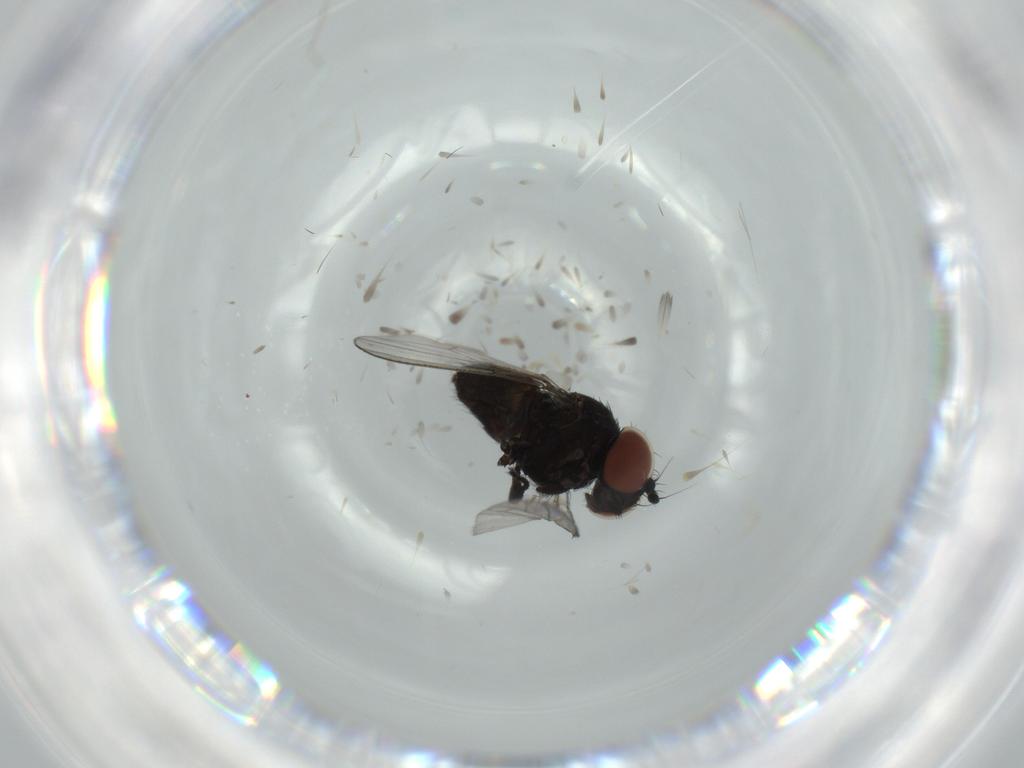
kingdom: Animalia
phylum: Arthropoda
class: Insecta
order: Diptera
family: Milichiidae
